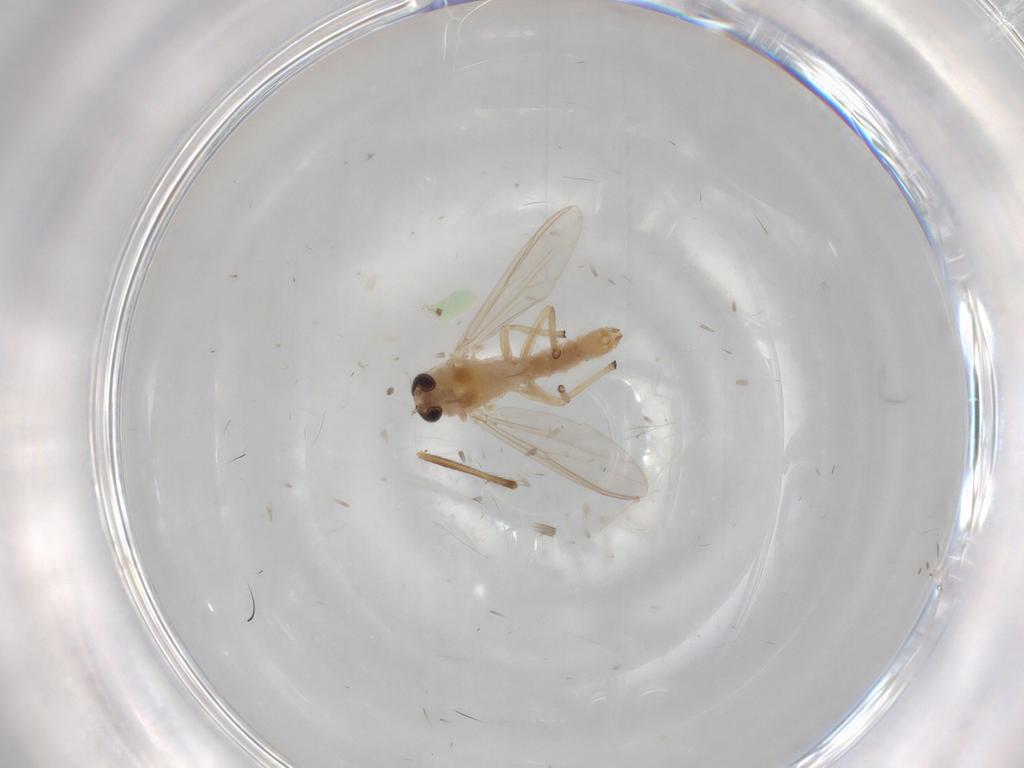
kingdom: Animalia
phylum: Arthropoda
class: Insecta
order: Diptera
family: Chironomidae
